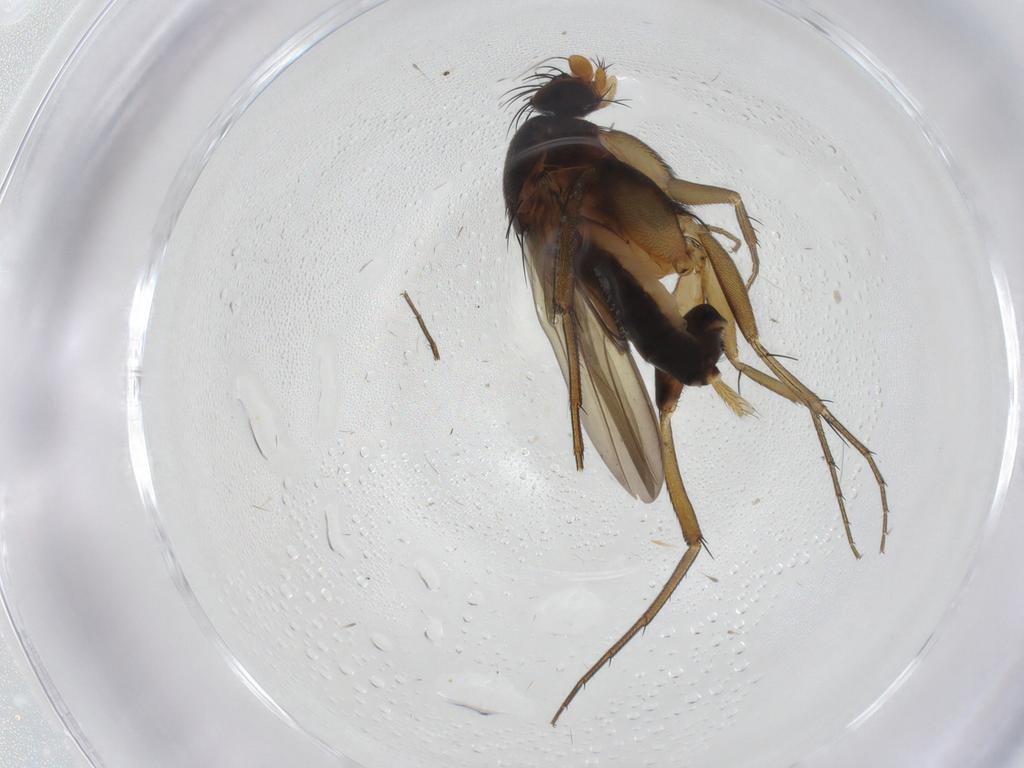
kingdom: Animalia
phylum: Arthropoda
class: Insecta
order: Diptera
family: Phoridae
